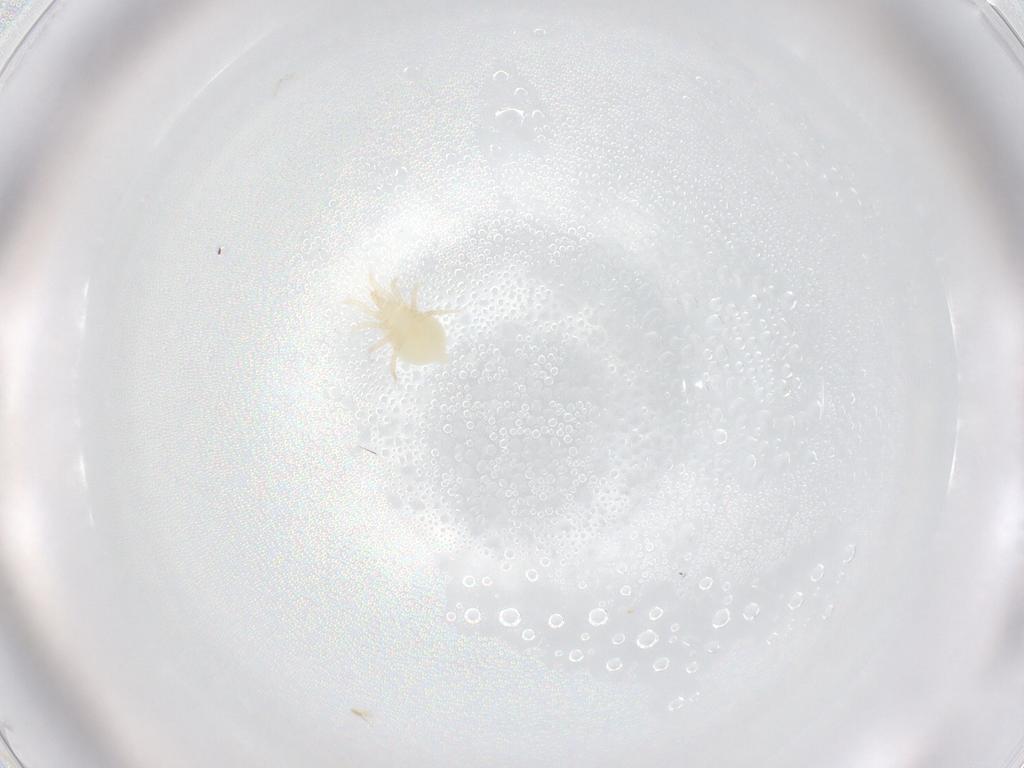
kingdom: Animalia
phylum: Arthropoda
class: Arachnida
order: Mesostigmata
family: Melicharidae
